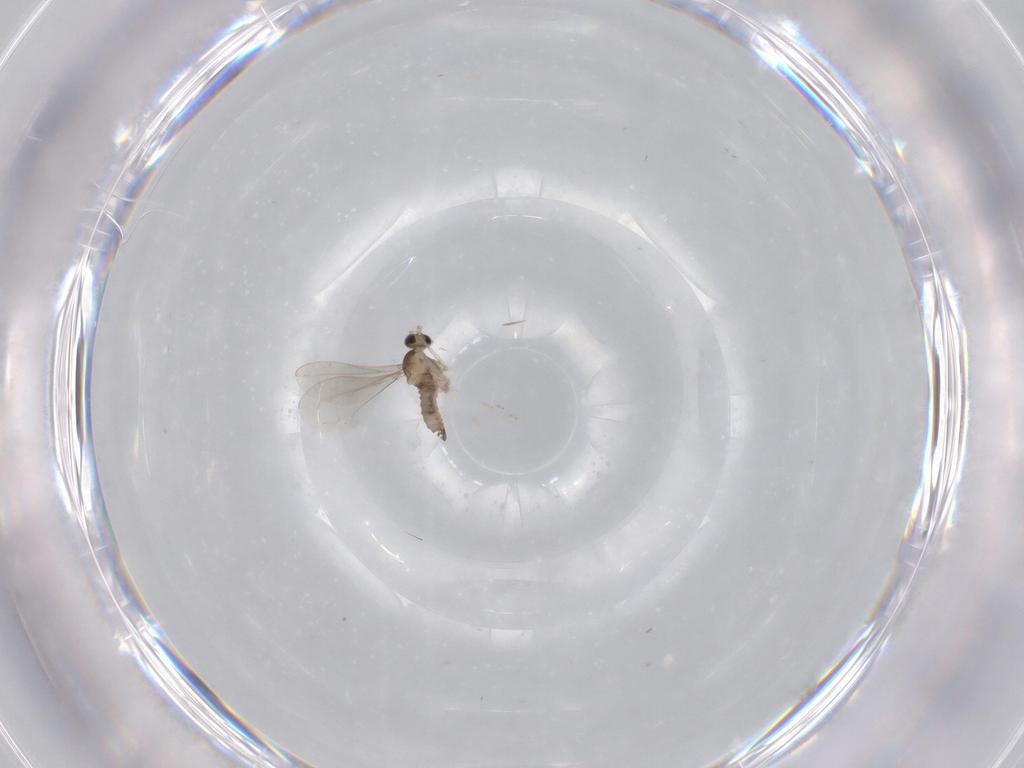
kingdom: Animalia
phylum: Arthropoda
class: Insecta
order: Diptera
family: Cecidomyiidae
